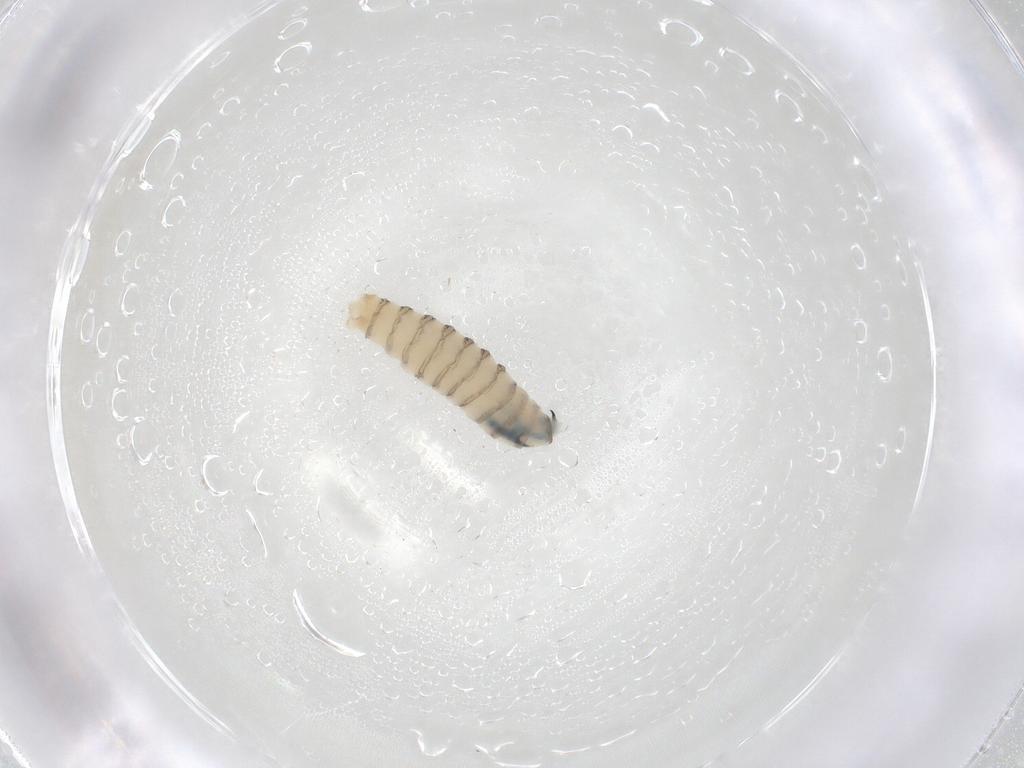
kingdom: Animalia
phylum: Arthropoda
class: Insecta
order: Diptera
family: Sarcophagidae
